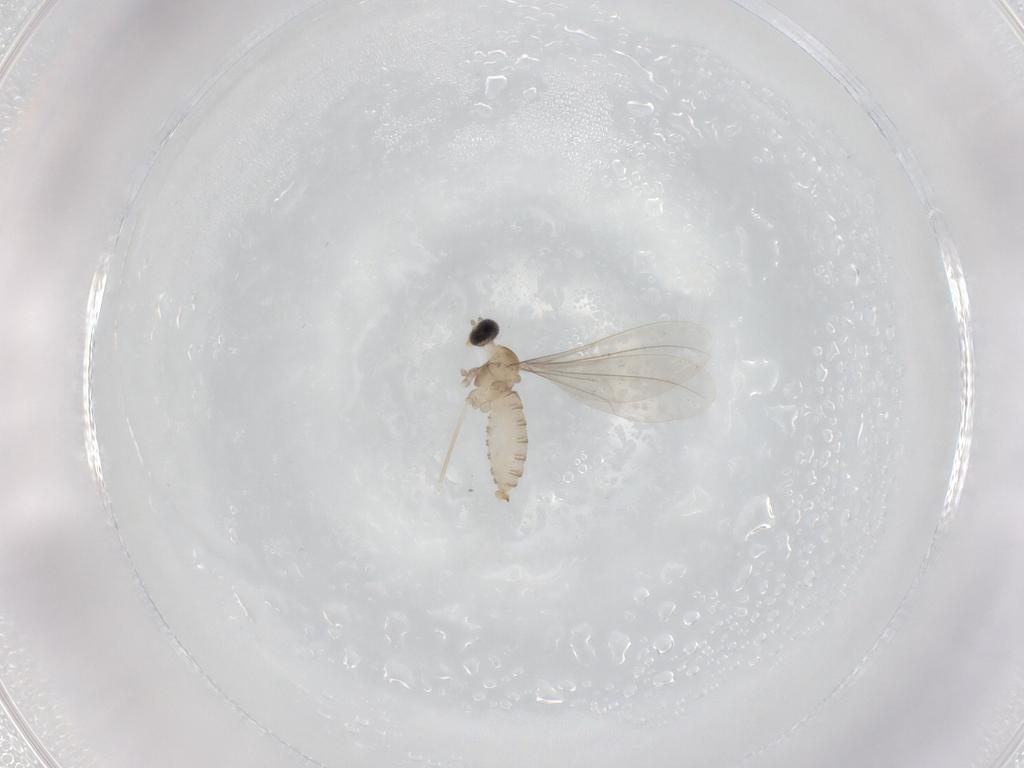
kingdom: Animalia
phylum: Arthropoda
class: Insecta
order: Diptera
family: Cecidomyiidae
